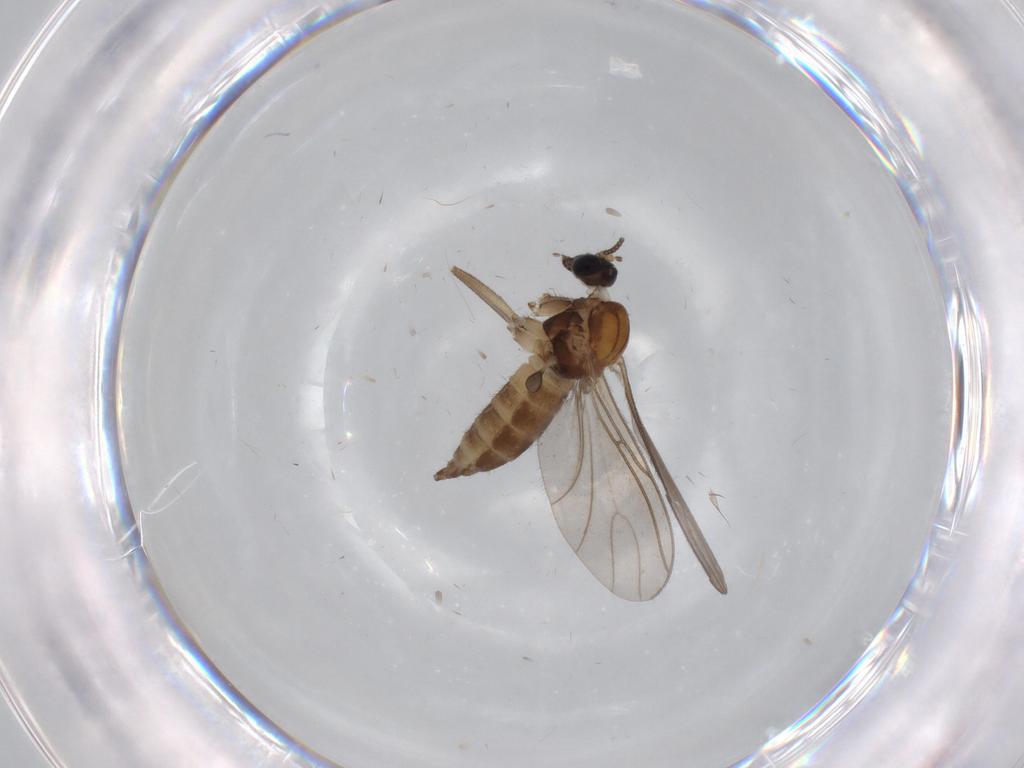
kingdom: Animalia
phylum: Arthropoda
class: Insecta
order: Diptera
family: Sciaridae
